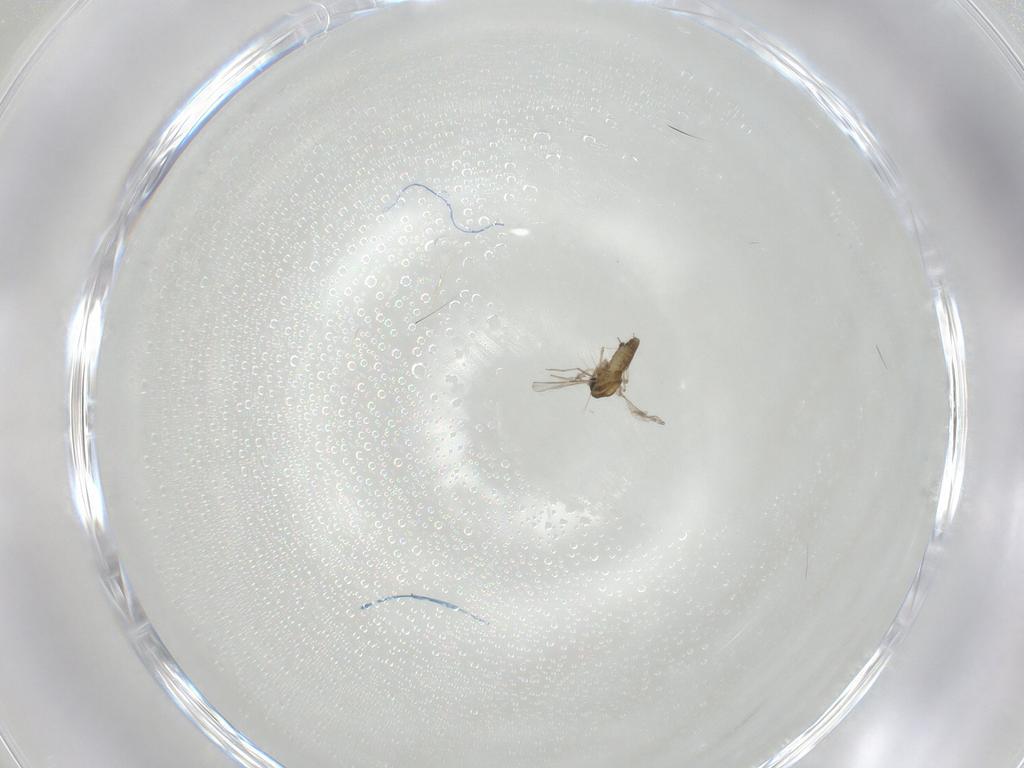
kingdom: Animalia
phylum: Arthropoda
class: Insecta
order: Diptera
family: Chironomidae
